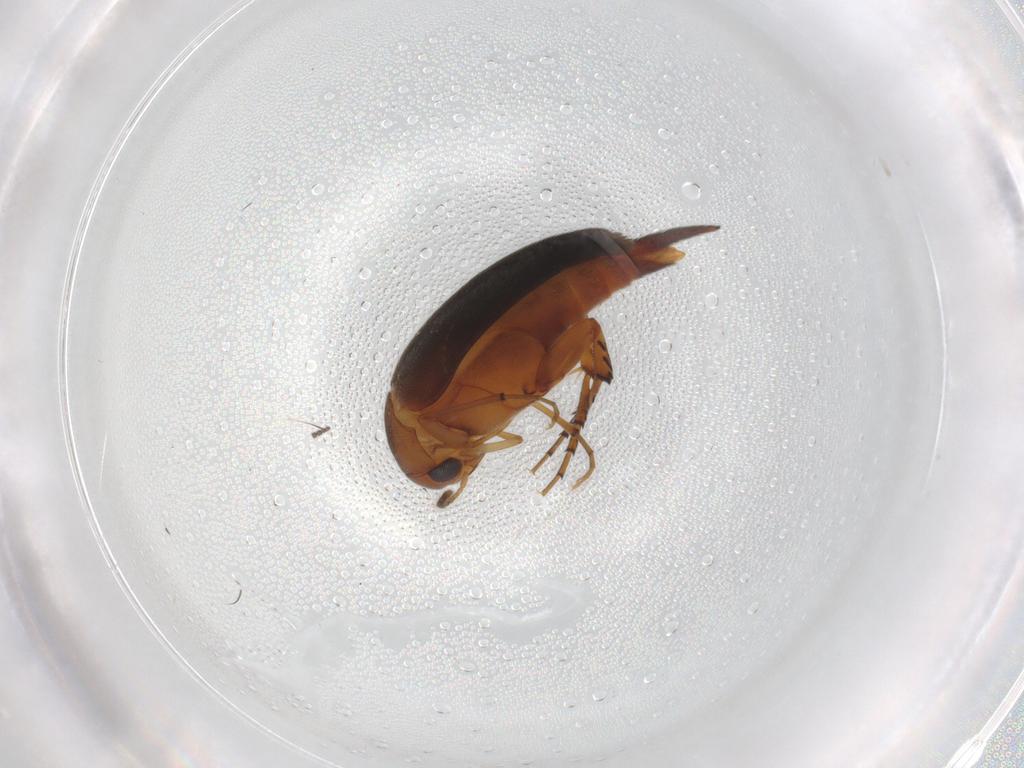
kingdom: Animalia
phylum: Arthropoda
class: Insecta
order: Coleoptera
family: Mordellidae
